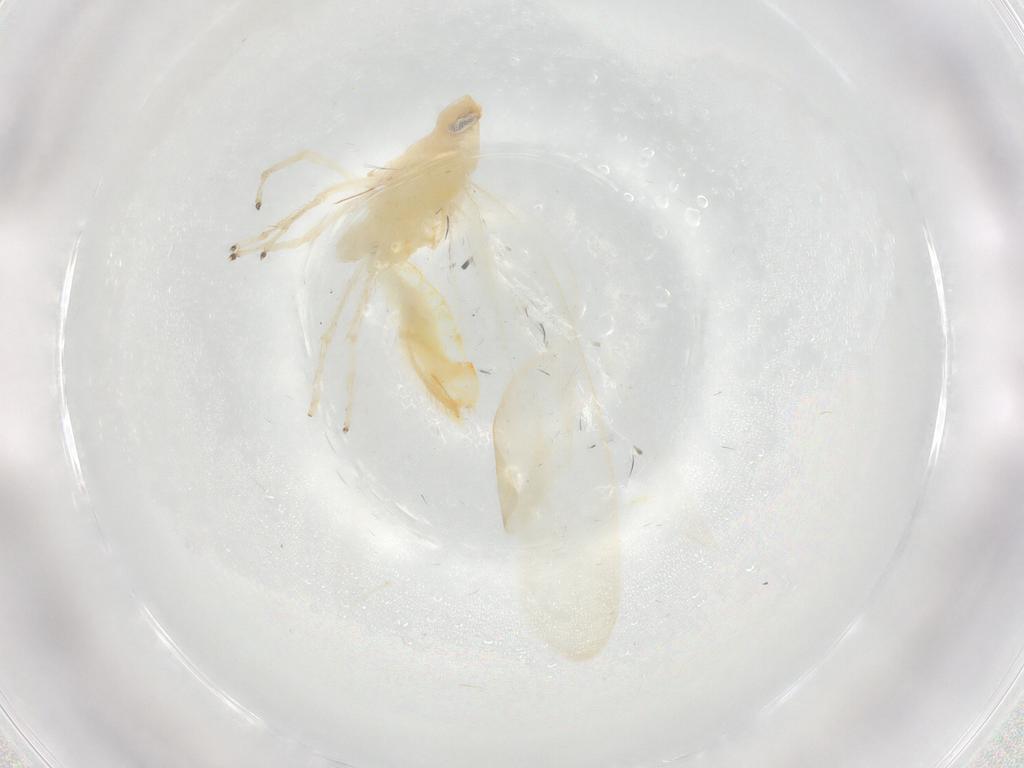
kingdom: Animalia
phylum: Arthropoda
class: Insecta
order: Hemiptera
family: Cicadellidae
